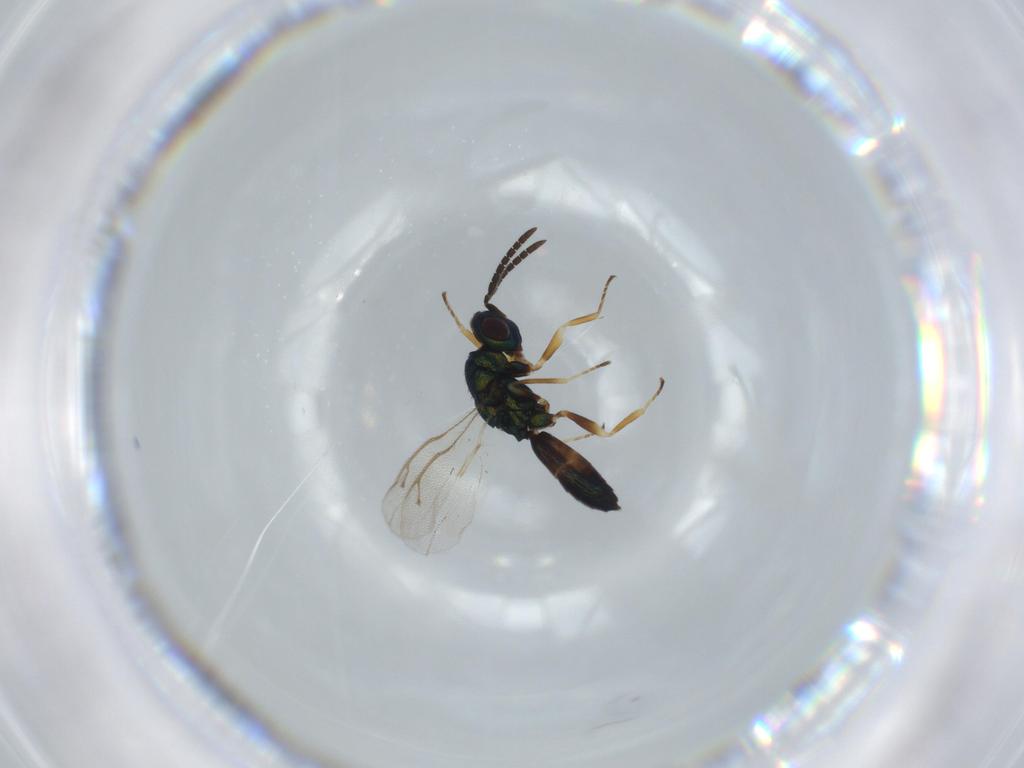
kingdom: Animalia
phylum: Arthropoda
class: Insecta
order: Hymenoptera
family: Pteromalidae
